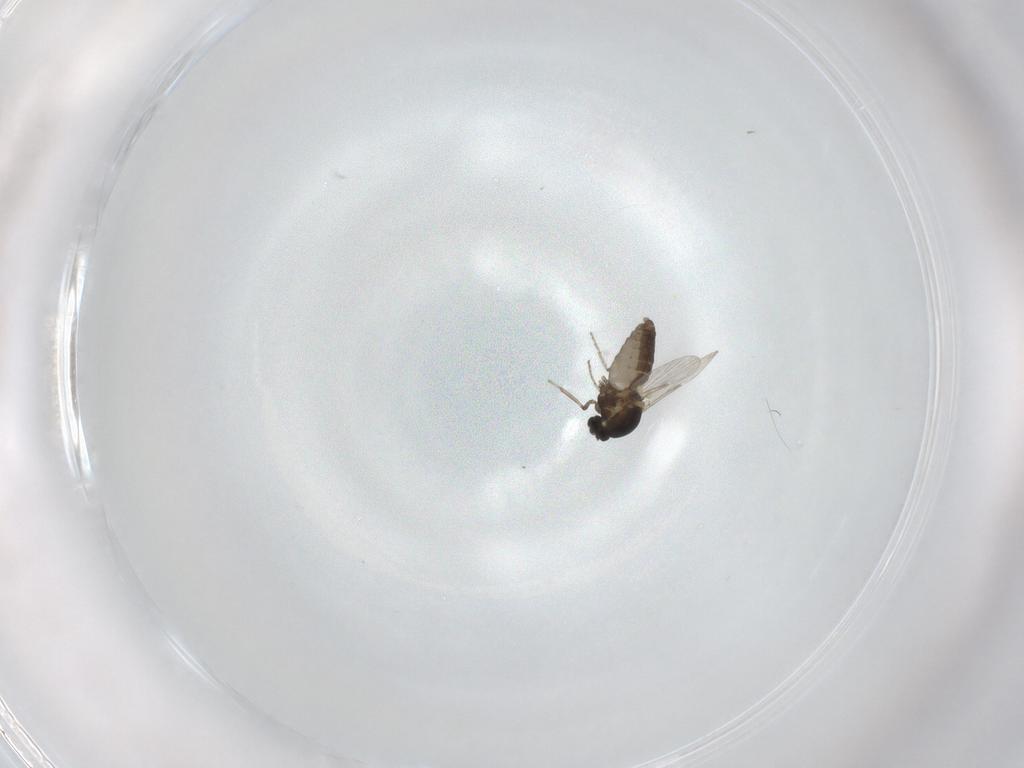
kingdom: Animalia
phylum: Arthropoda
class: Insecta
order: Diptera
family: Ceratopogonidae
